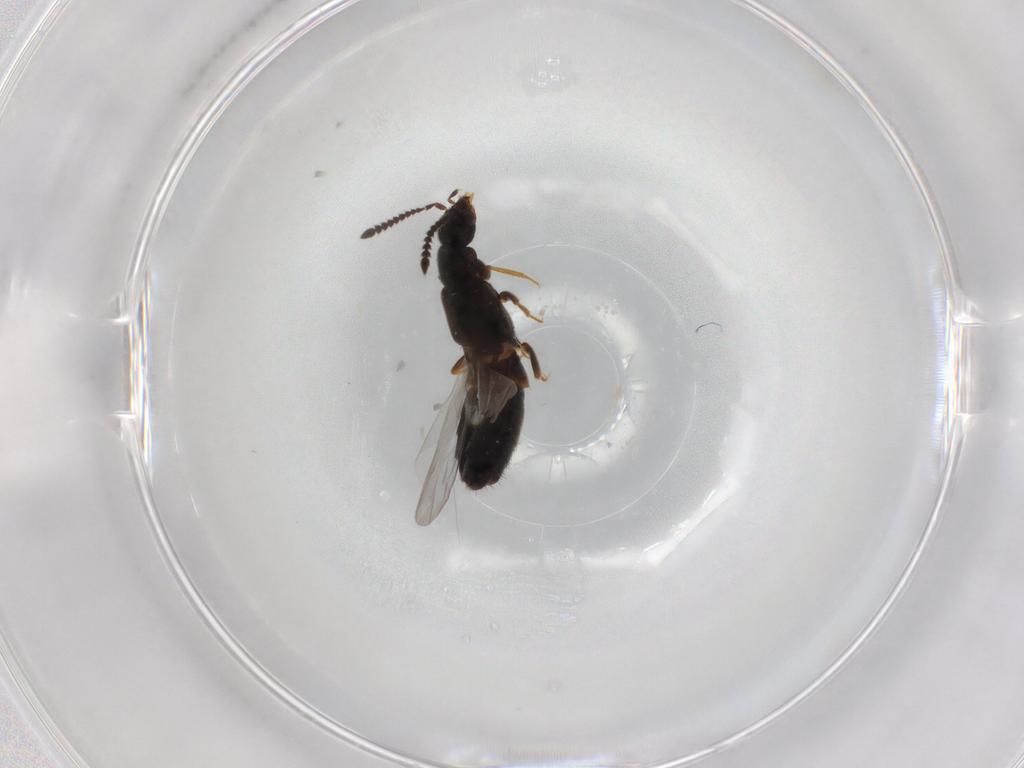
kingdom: Animalia
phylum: Arthropoda
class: Insecta
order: Coleoptera
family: Staphylinidae
